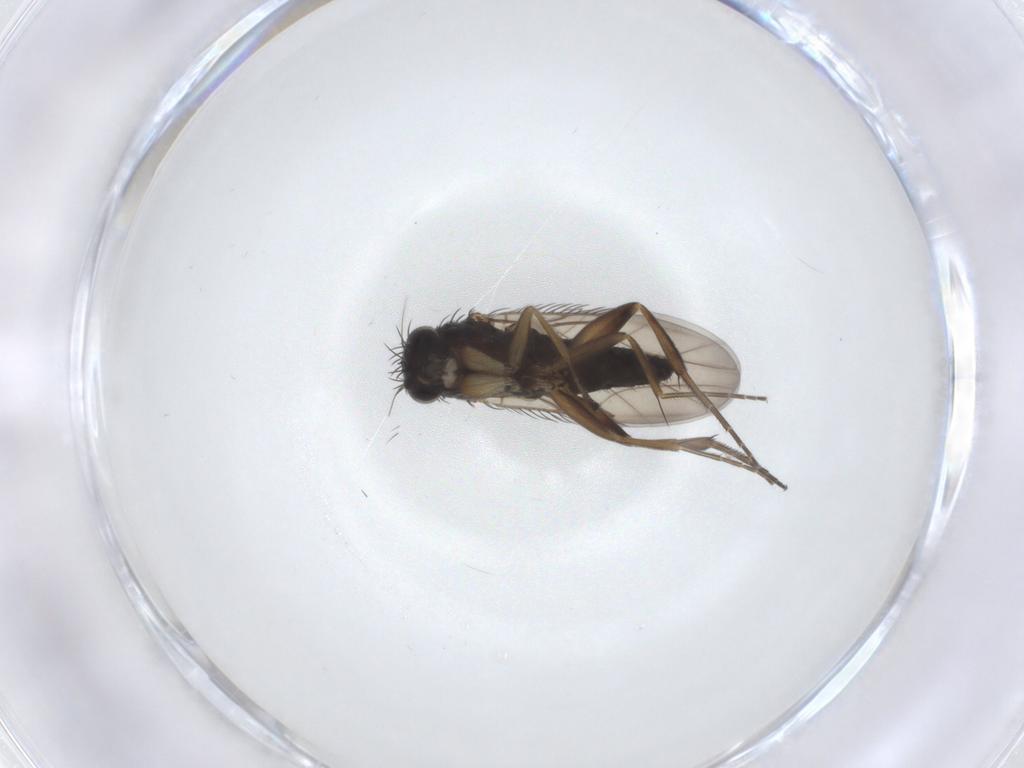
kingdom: Animalia
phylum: Arthropoda
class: Insecta
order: Diptera
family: Phoridae
